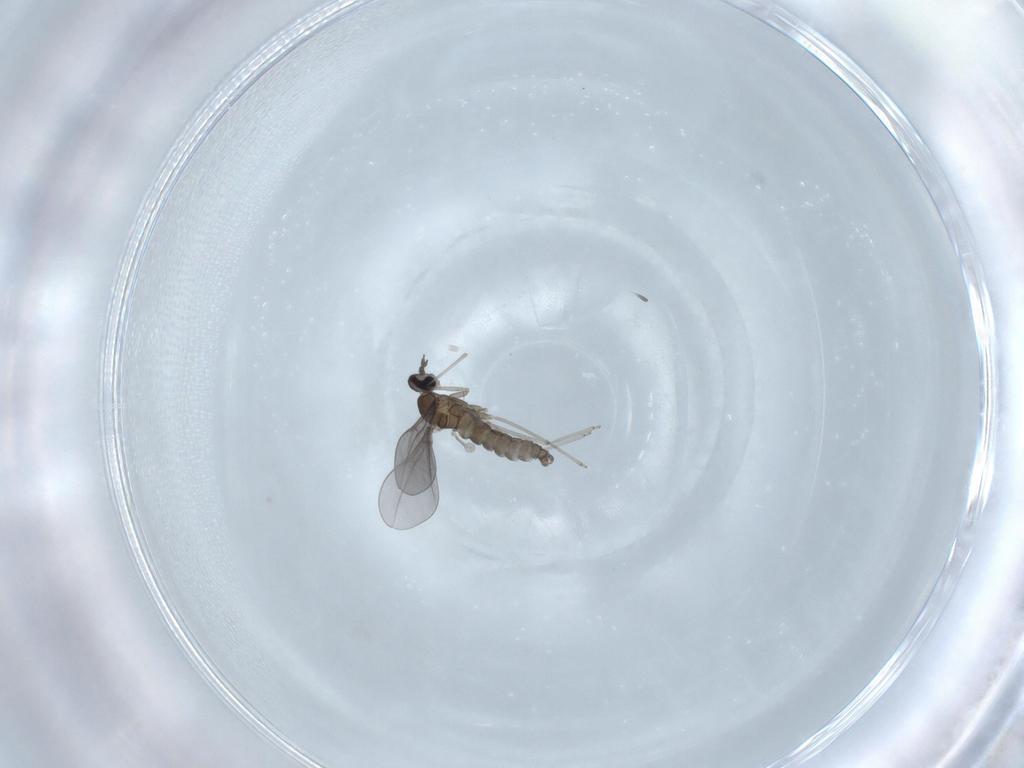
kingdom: Animalia
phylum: Arthropoda
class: Insecta
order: Diptera
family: Cecidomyiidae
